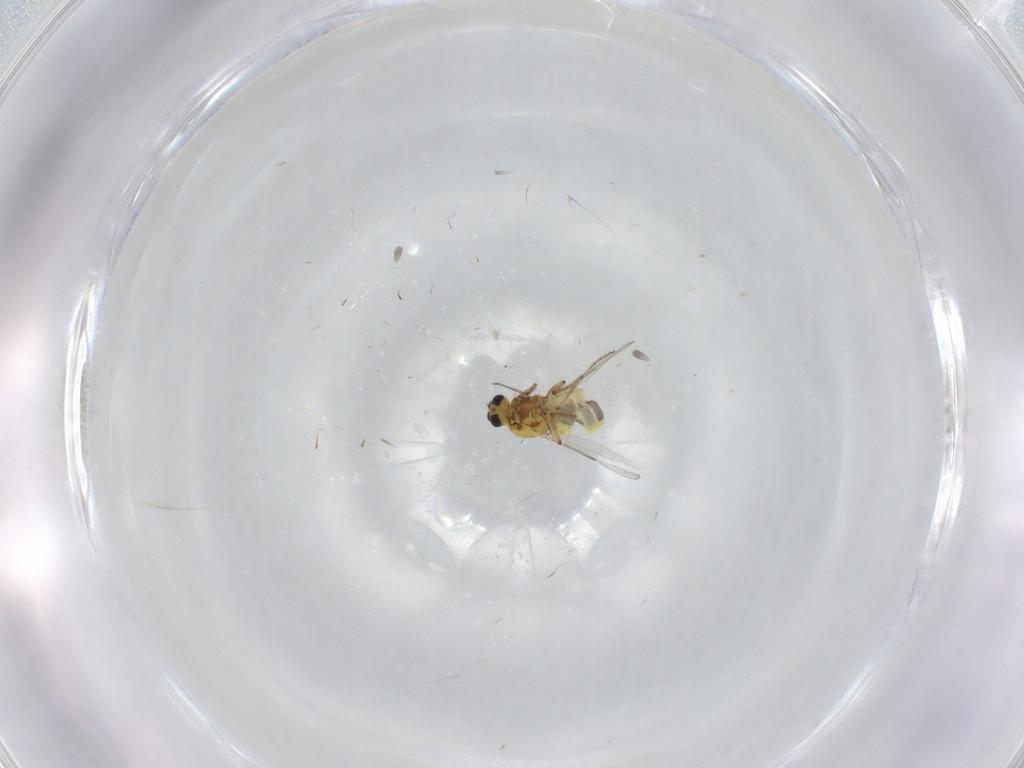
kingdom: Animalia
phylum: Arthropoda
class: Insecta
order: Diptera
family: Ceratopogonidae
